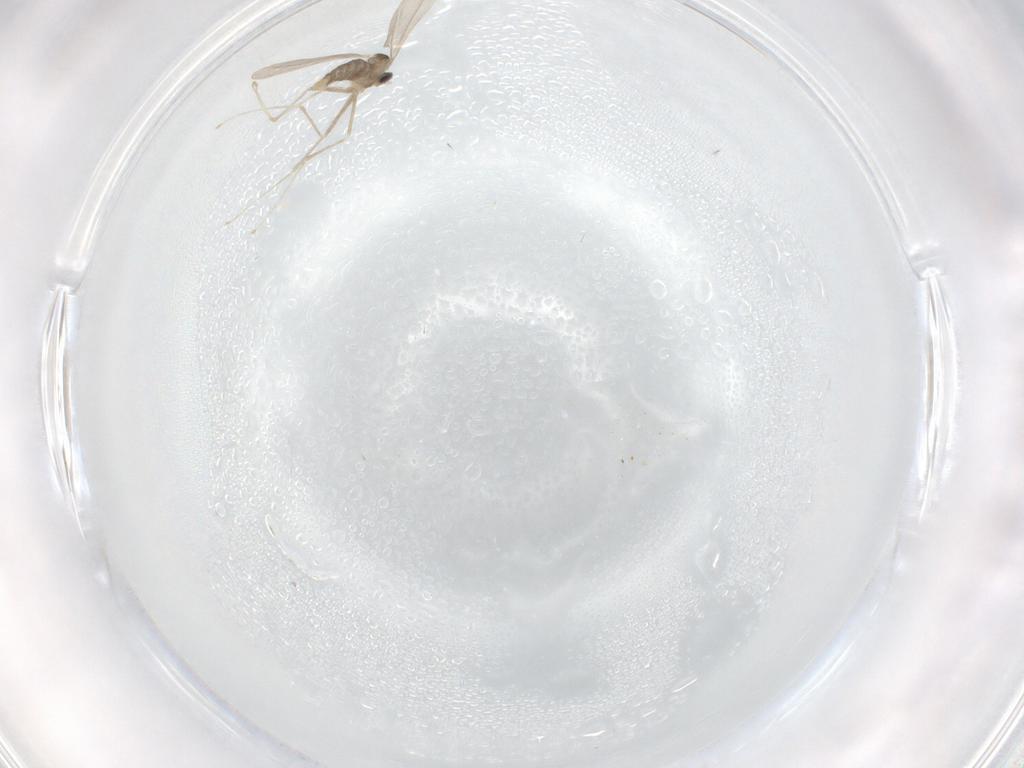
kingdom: Animalia
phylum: Arthropoda
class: Insecta
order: Diptera
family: Cecidomyiidae
